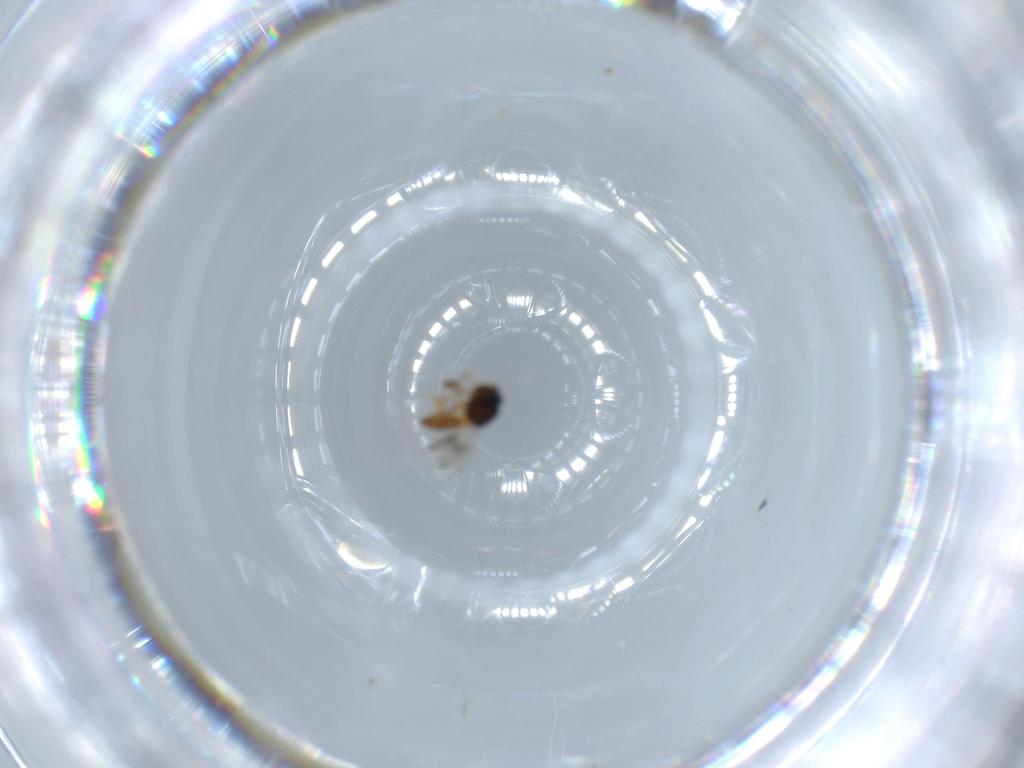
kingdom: Animalia
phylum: Arthropoda
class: Insecta
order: Hymenoptera
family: Scelionidae
